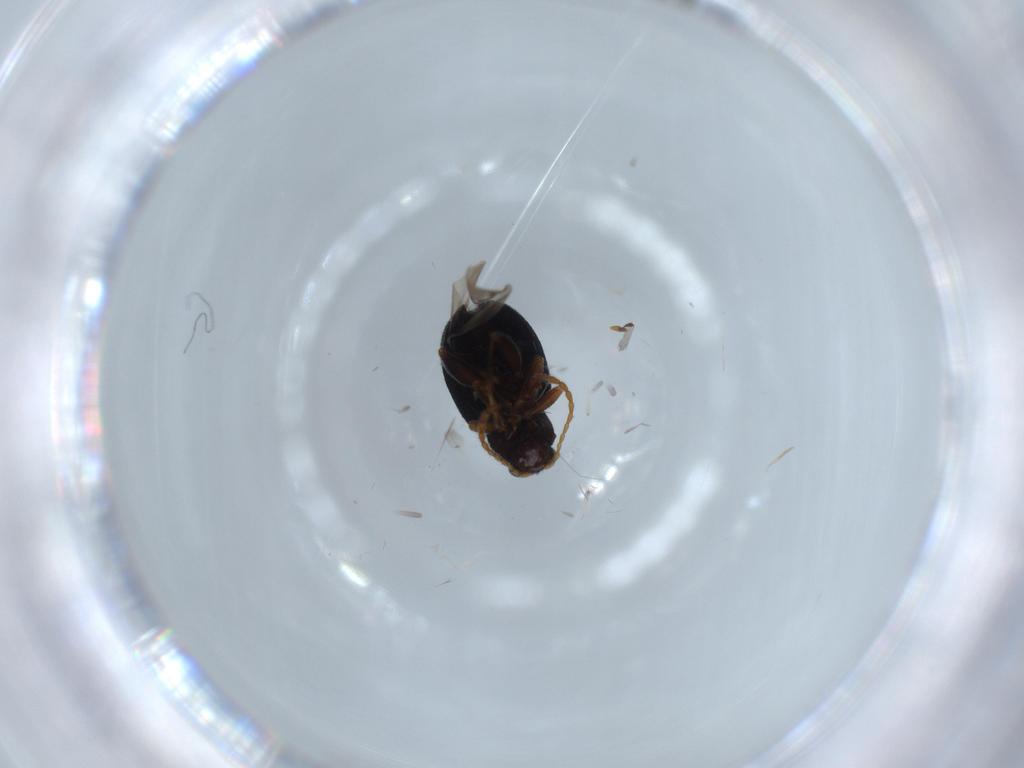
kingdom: Animalia
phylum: Arthropoda
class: Insecta
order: Coleoptera
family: Chrysomelidae
